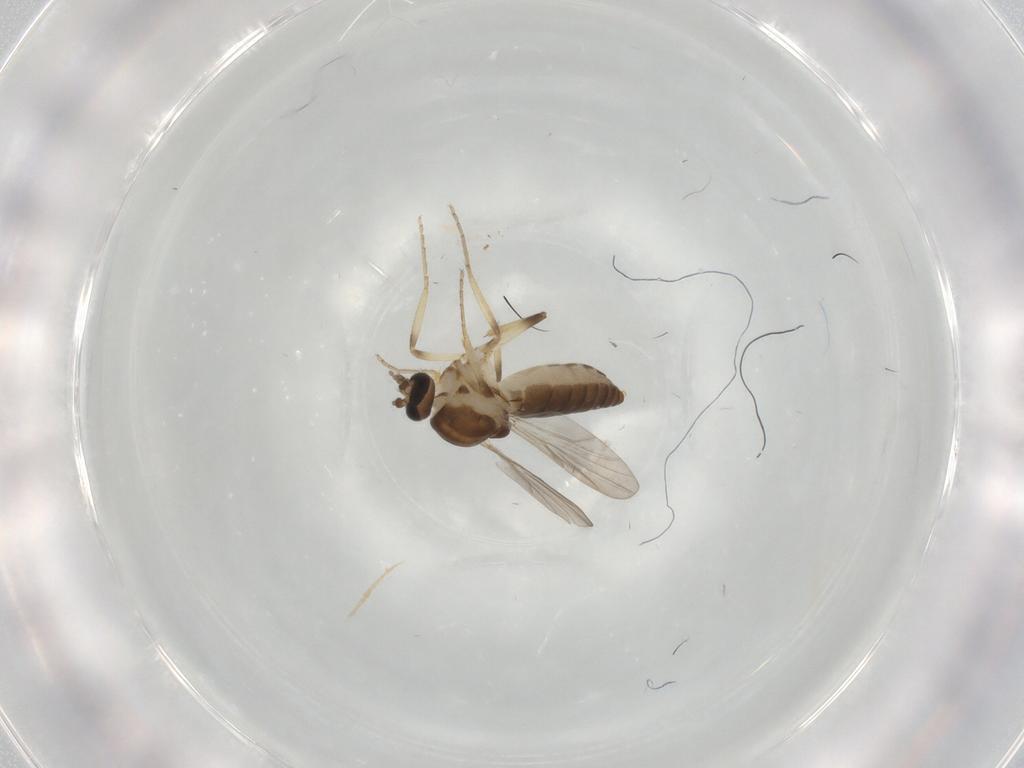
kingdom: Animalia
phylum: Arthropoda
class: Insecta
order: Diptera
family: Ceratopogonidae
